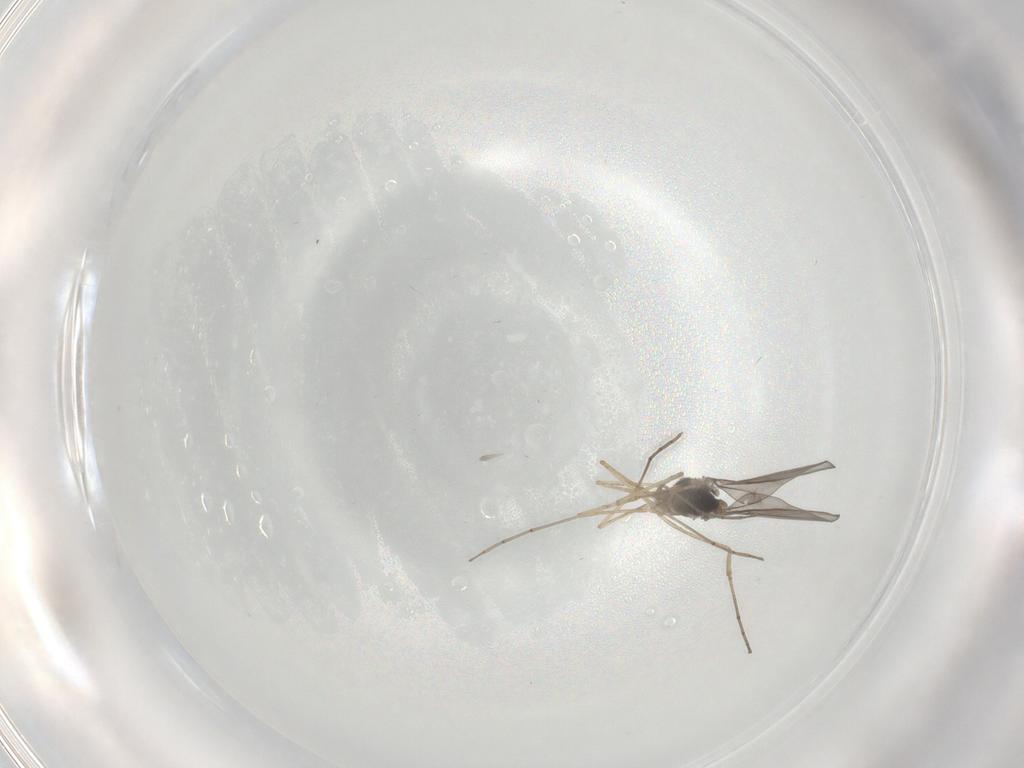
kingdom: Animalia
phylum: Arthropoda
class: Insecta
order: Diptera
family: Cecidomyiidae
